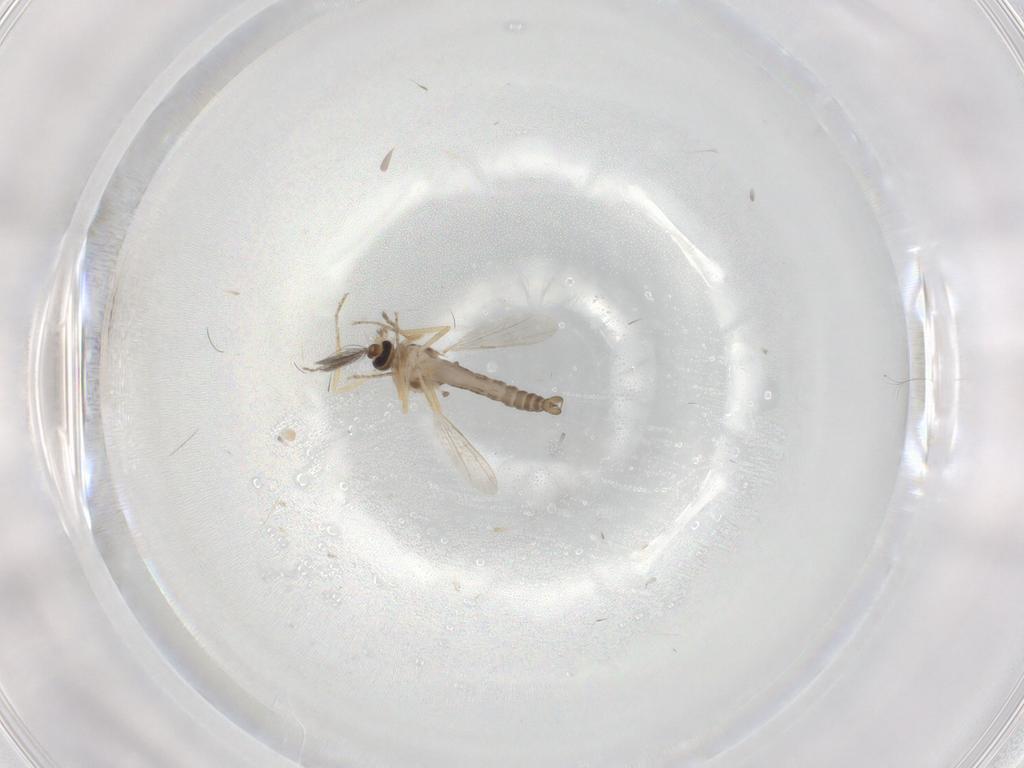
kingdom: Animalia
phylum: Arthropoda
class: Insecta
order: Diptera
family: Ceratopogonidae
